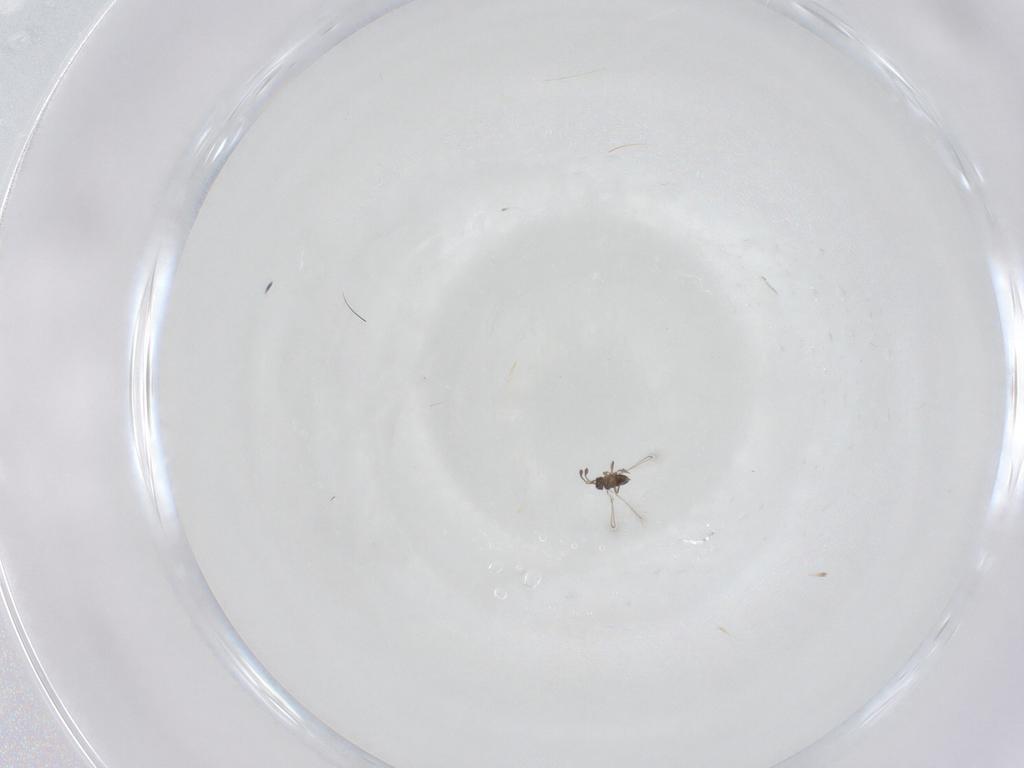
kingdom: Animalia
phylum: Arthropoda
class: Insecta
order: Hymenoptera
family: Mymaridae
